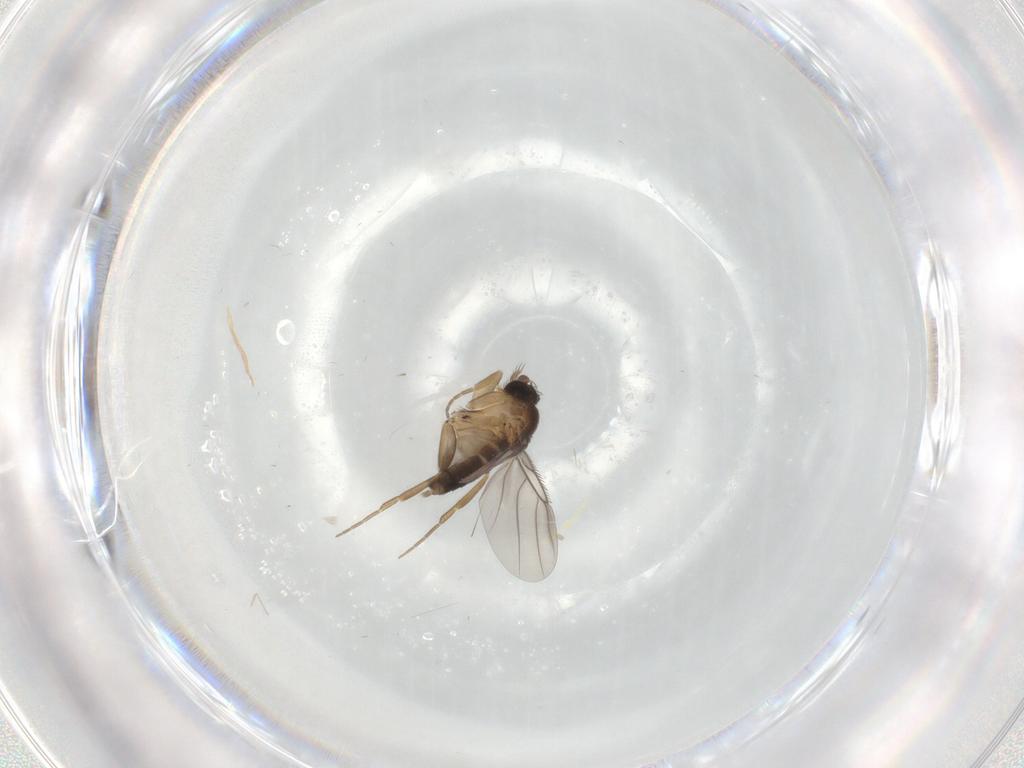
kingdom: Animalia
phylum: Arthropoda
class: Insecta
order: Diptera
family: Cecidomyiidae
